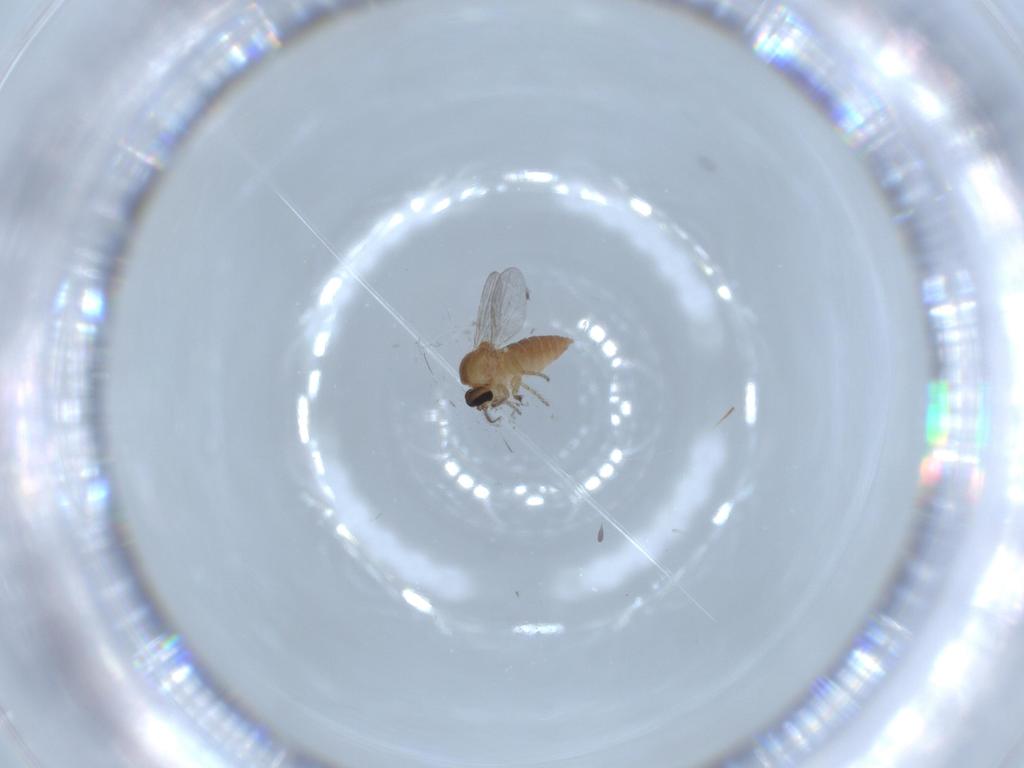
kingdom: Animalia
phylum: Arthropoda
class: Insecta
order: Diptera
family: Ceratopogonidae
